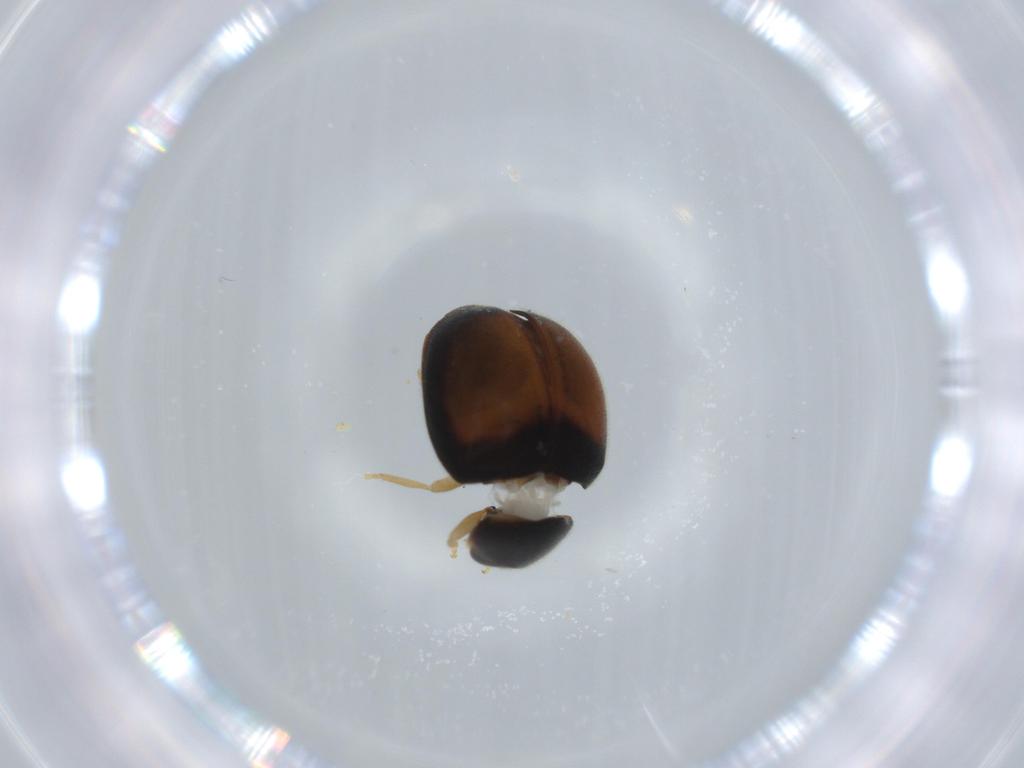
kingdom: Animalia
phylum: Arthropoda
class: Insecta
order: Coleoptera
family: Coccinellidae
